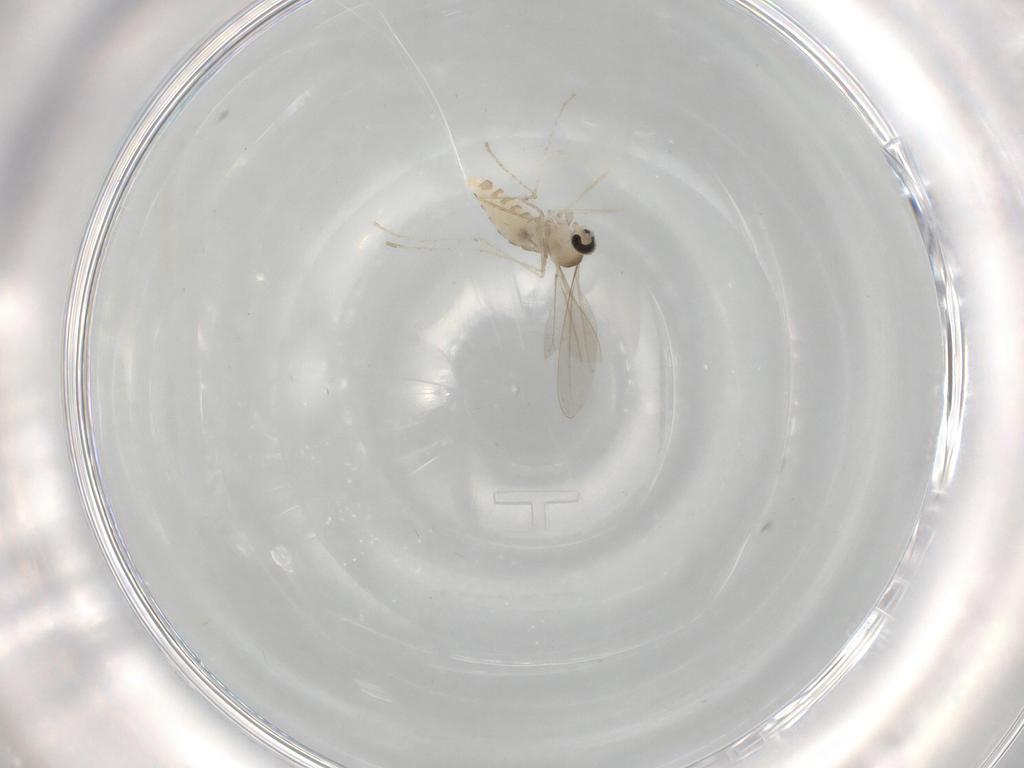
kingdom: Animalia
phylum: Arthropoda
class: Insecta
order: Diptera
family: Cecidomyiidae
